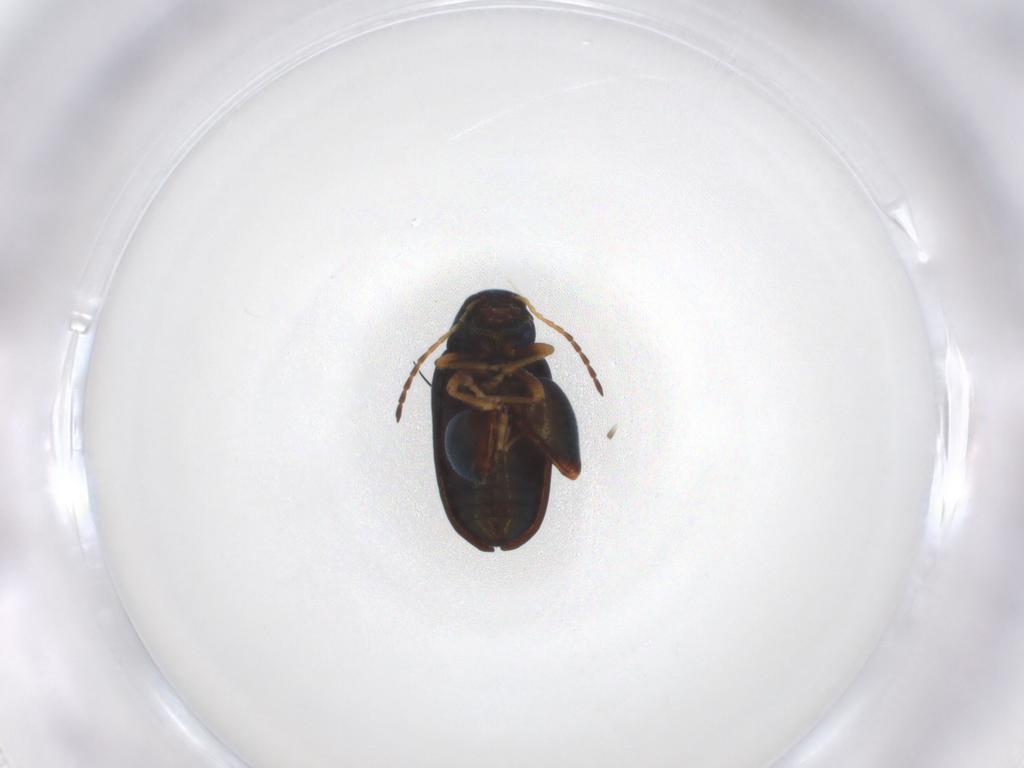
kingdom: Animalia
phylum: Arthropoda
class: Insecta
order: Coleoptera
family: Chrysomelidae
